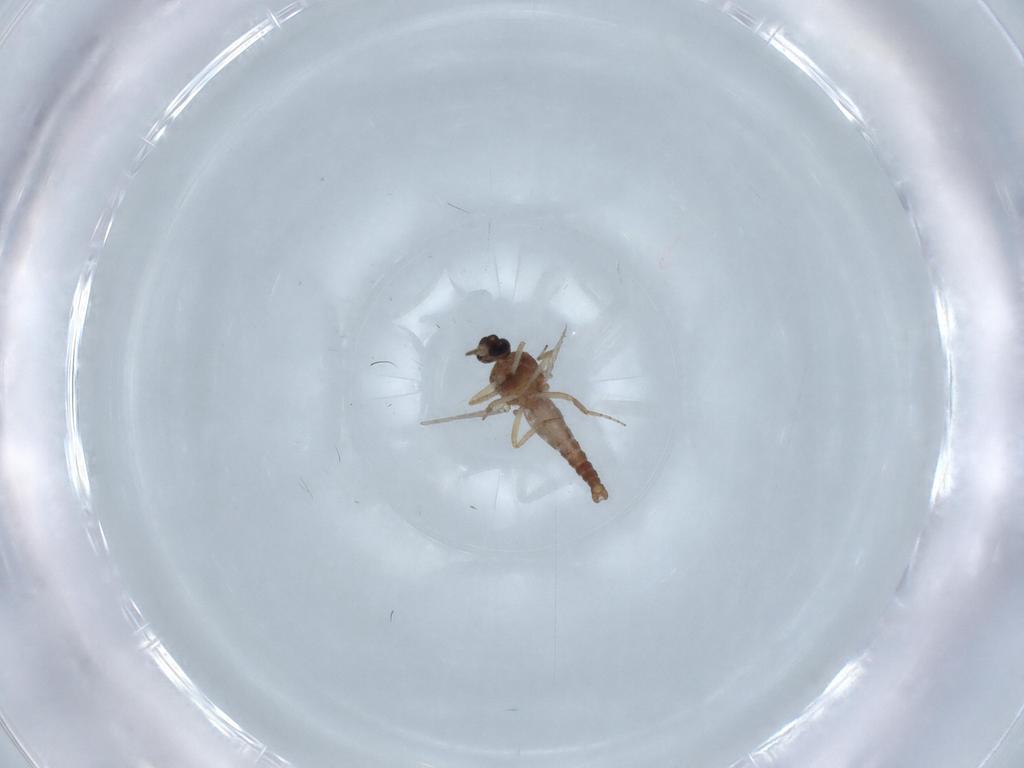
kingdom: Animalia
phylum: Arthropoda
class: Insecta
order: Diptera
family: Ceratopogonidae
